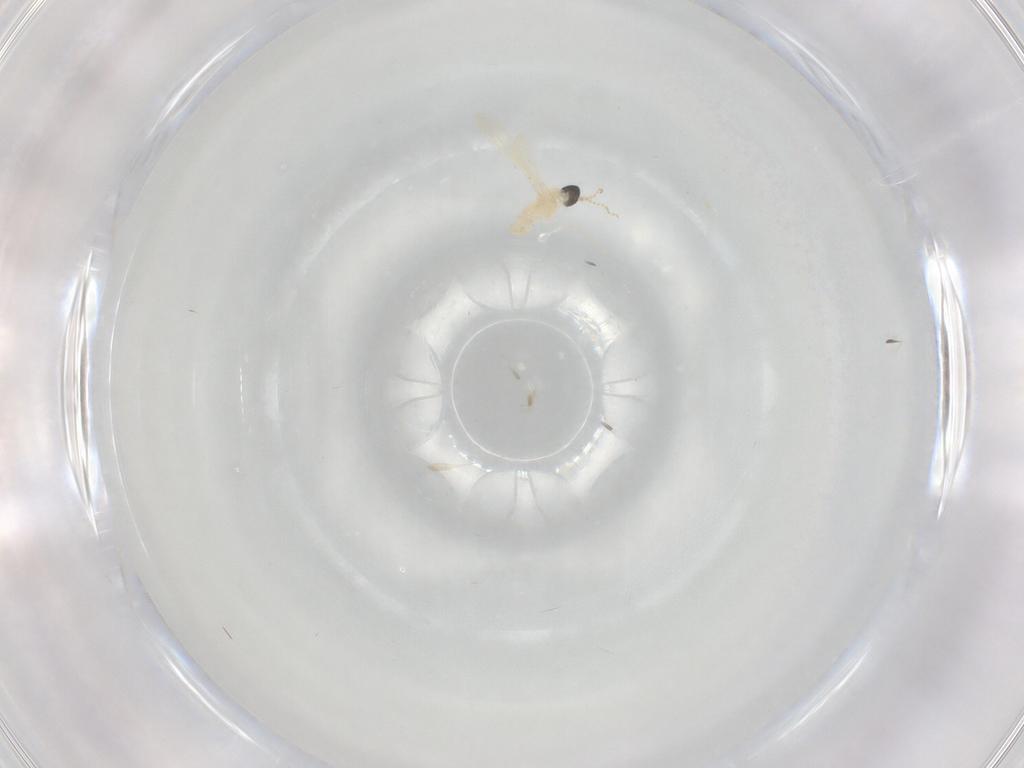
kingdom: Animalia
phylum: Arthropoda
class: Insecta
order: Diptera
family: Cecidomyiidae
